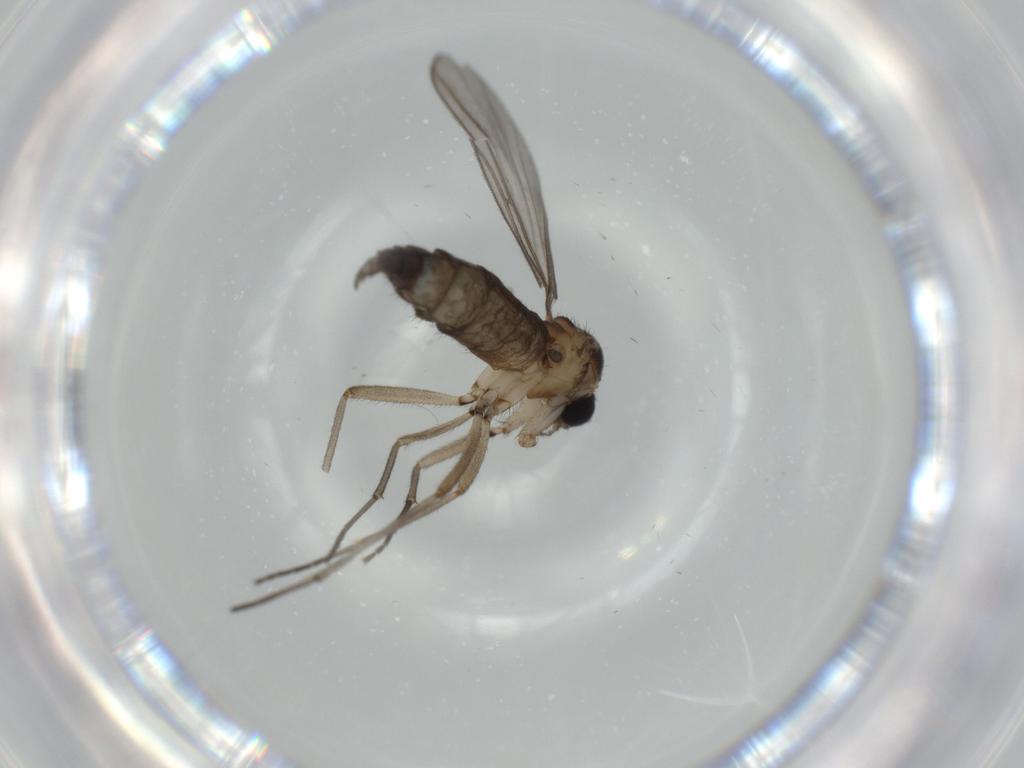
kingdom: Animalia
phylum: Arthropoda
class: Insecta
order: Diptera
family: Sciaridae
